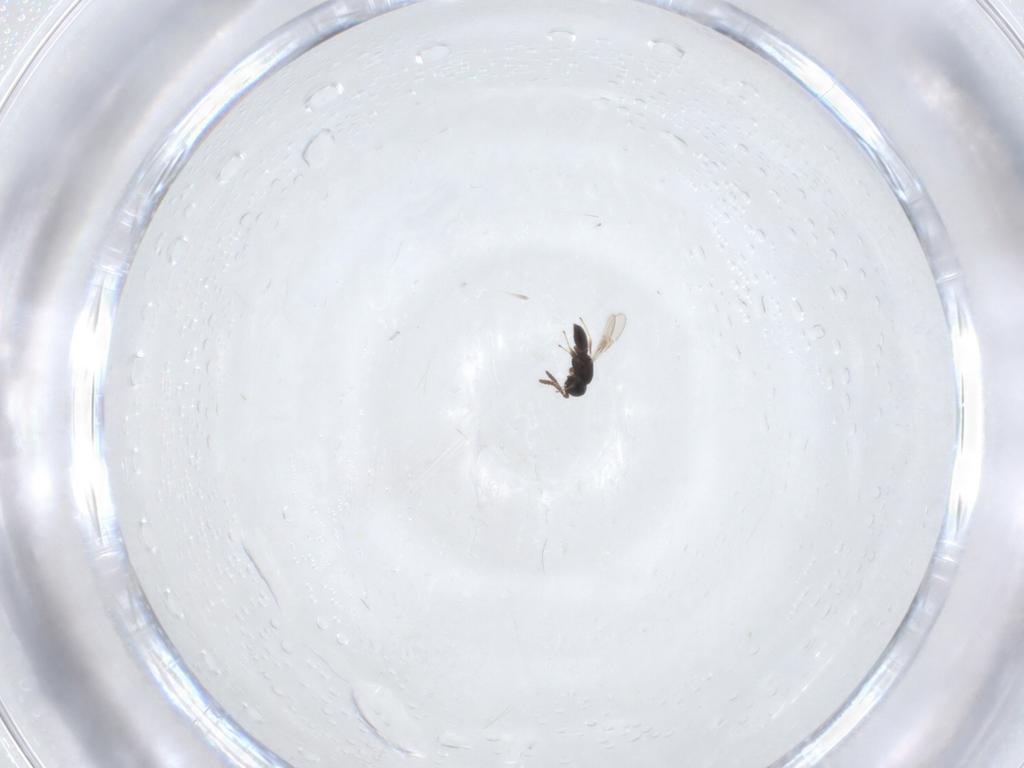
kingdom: Animalia
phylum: Arthropoda
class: Insecta
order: Hymenoptera
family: Scelionidae
